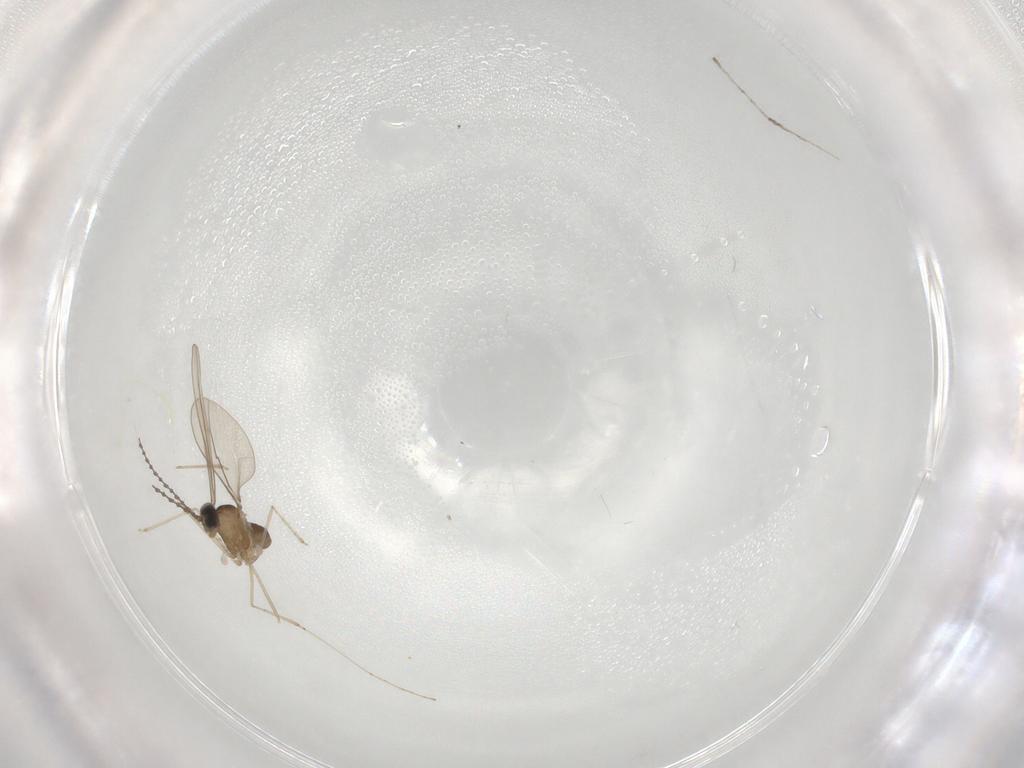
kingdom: Animalia
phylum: Arthropoda
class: Insecta
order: Diptera
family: Cecidomyiidae
